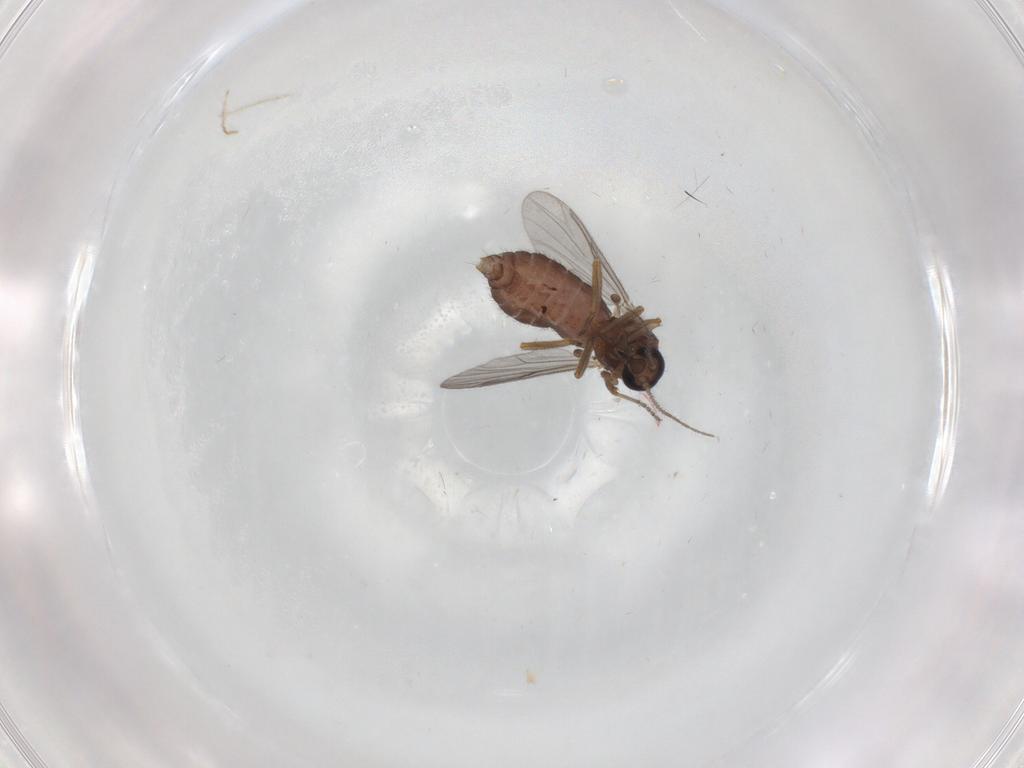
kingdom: Animalia
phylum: Arthropoda
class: Insecta
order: Diptera
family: Ceratopogonidae
